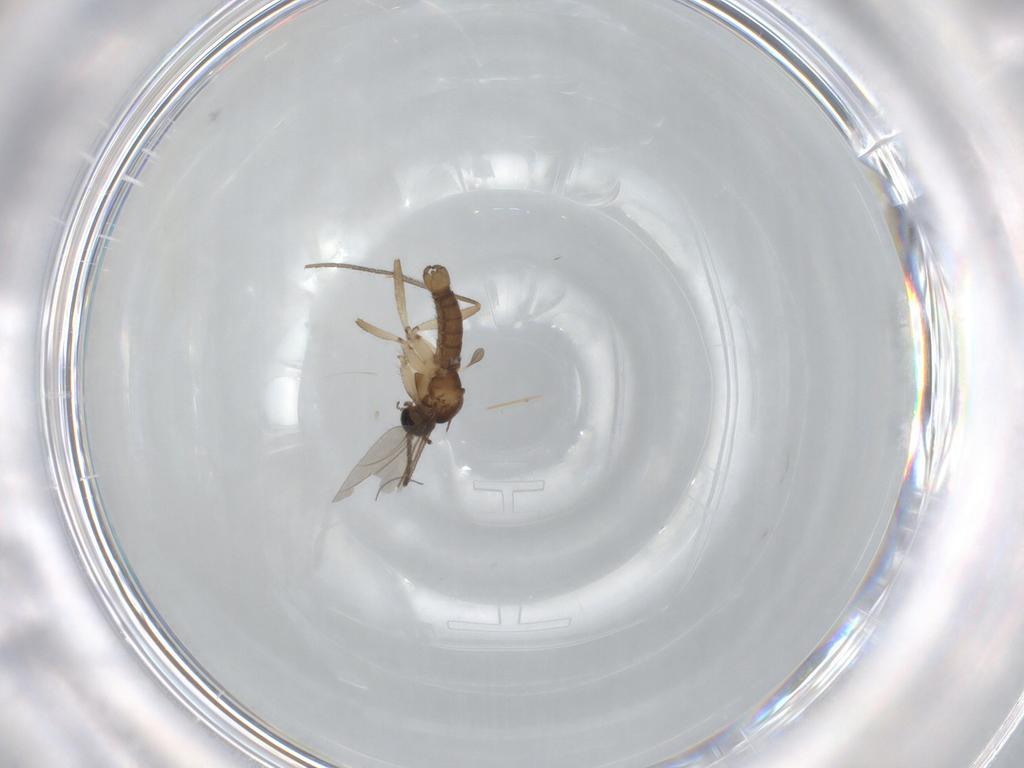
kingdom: Animalia
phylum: Arthropoda
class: Insecta
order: Diptera
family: Sciaridae
